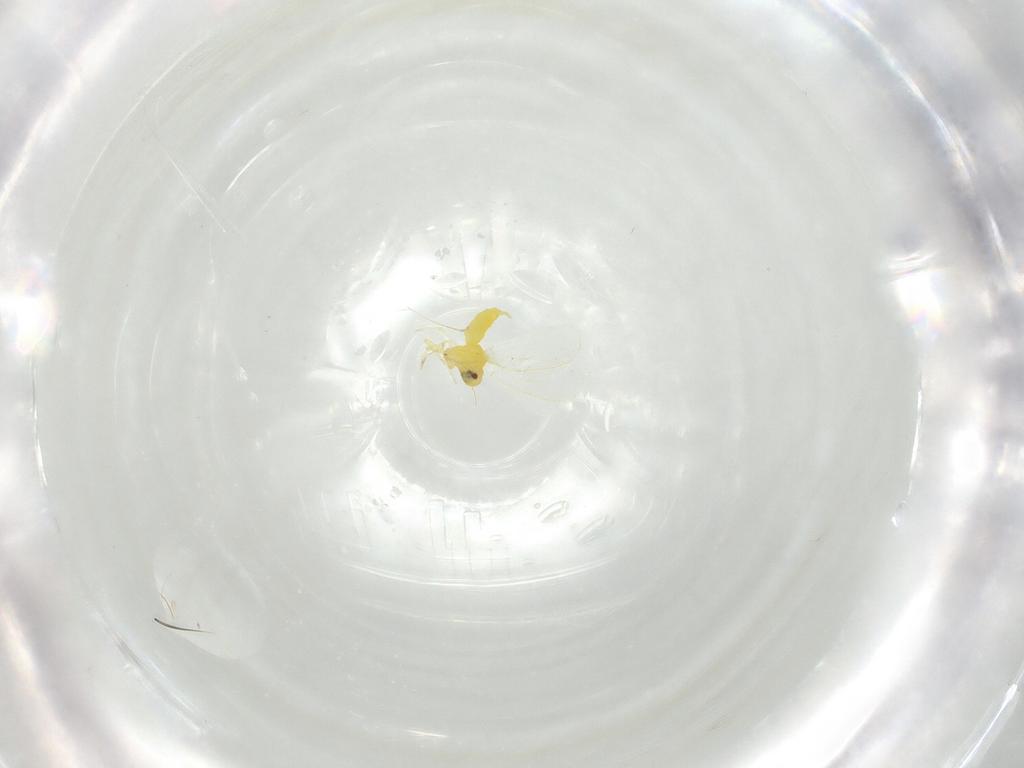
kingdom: Animalia
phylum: Arthropoda
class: Insecta
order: Hemiptera
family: Aleyrodidae
